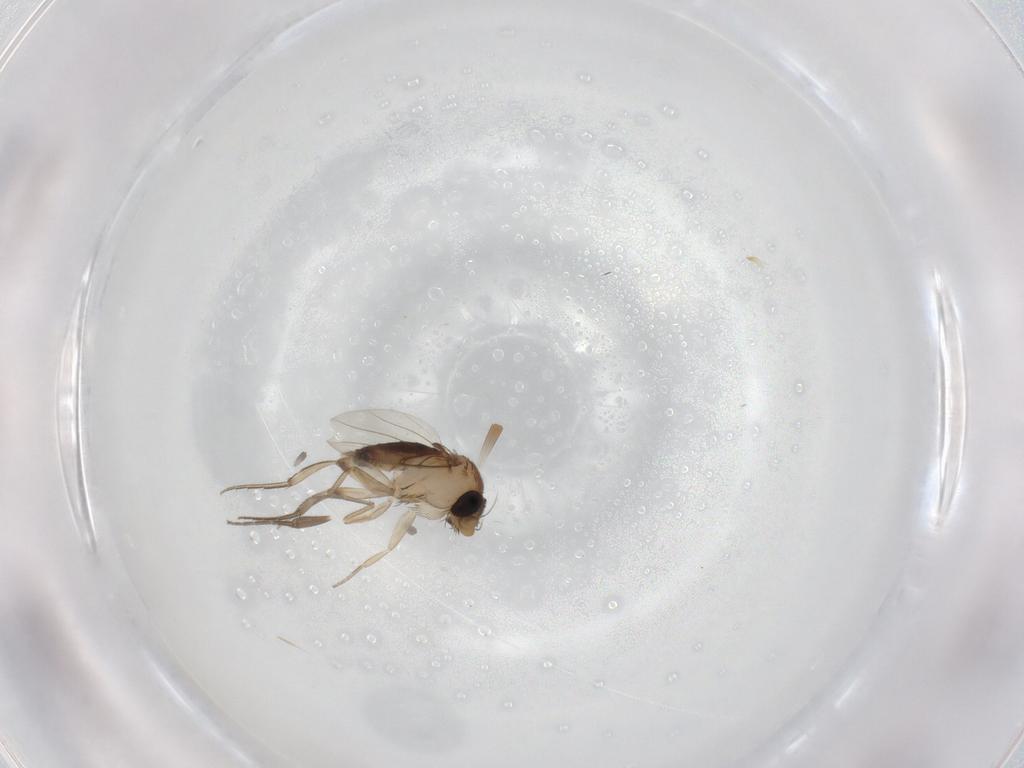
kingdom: Animalia
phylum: Arthropoda
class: Insecta
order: Diptera
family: Phoridae
